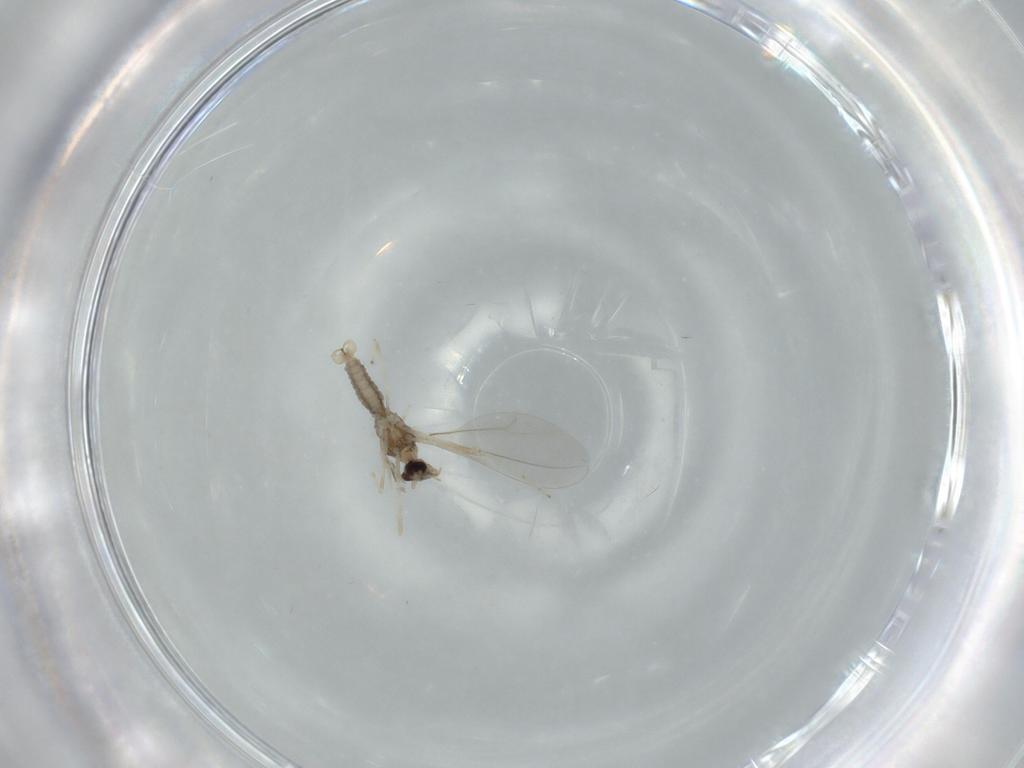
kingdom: Animalia
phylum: Arthropoda
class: Insecta
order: Diptera
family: Cecidomyiidae
